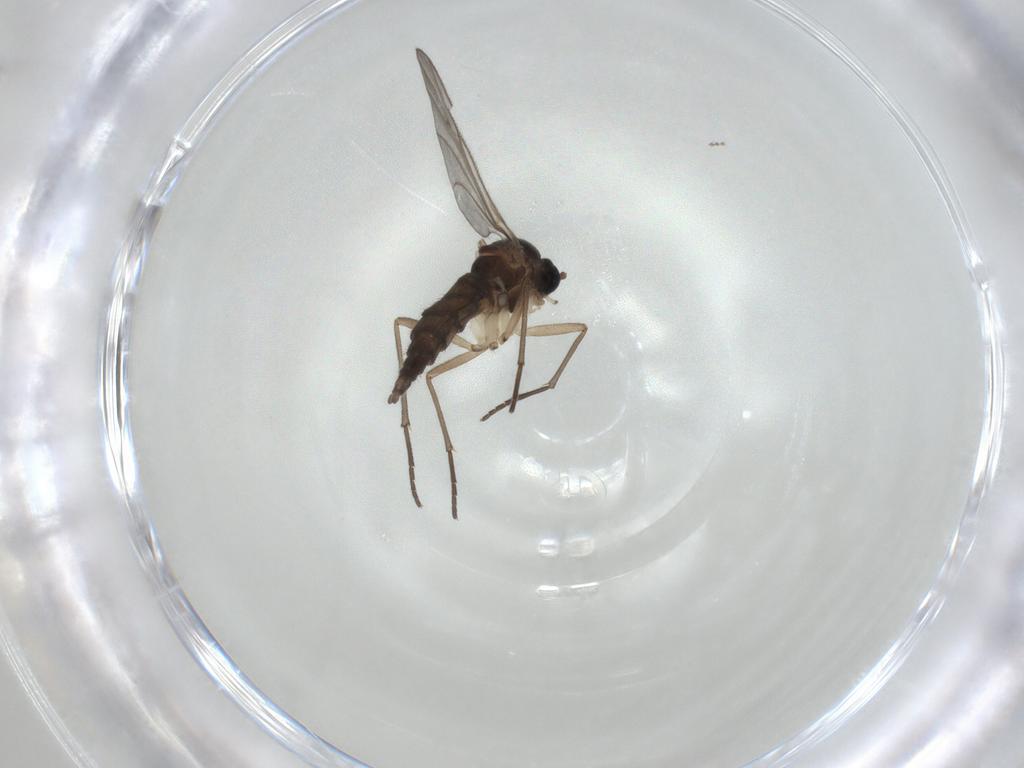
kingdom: Animalia
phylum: Arthropoda
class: Insecta
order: Diptera
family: Sciaridae
